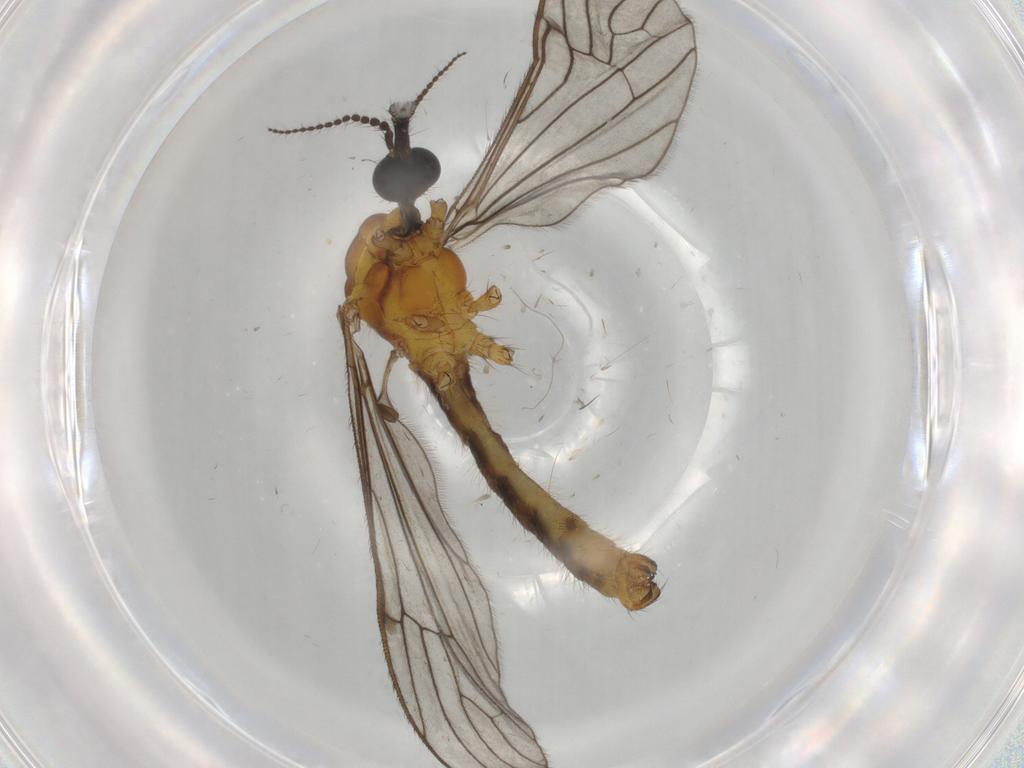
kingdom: Animalia
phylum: Arthropoda
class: Insecta
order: Diptera
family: Limoniidae
